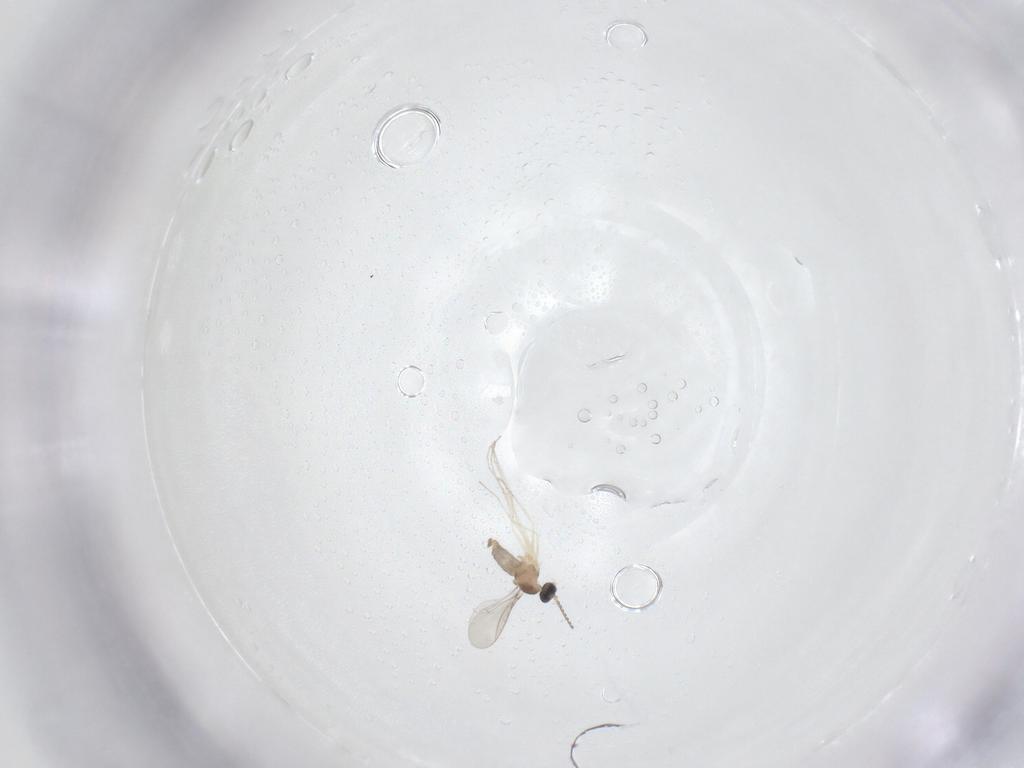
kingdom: Animalia
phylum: Arthropoda
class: Insecta
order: Diptera
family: Cecidomyiidae
